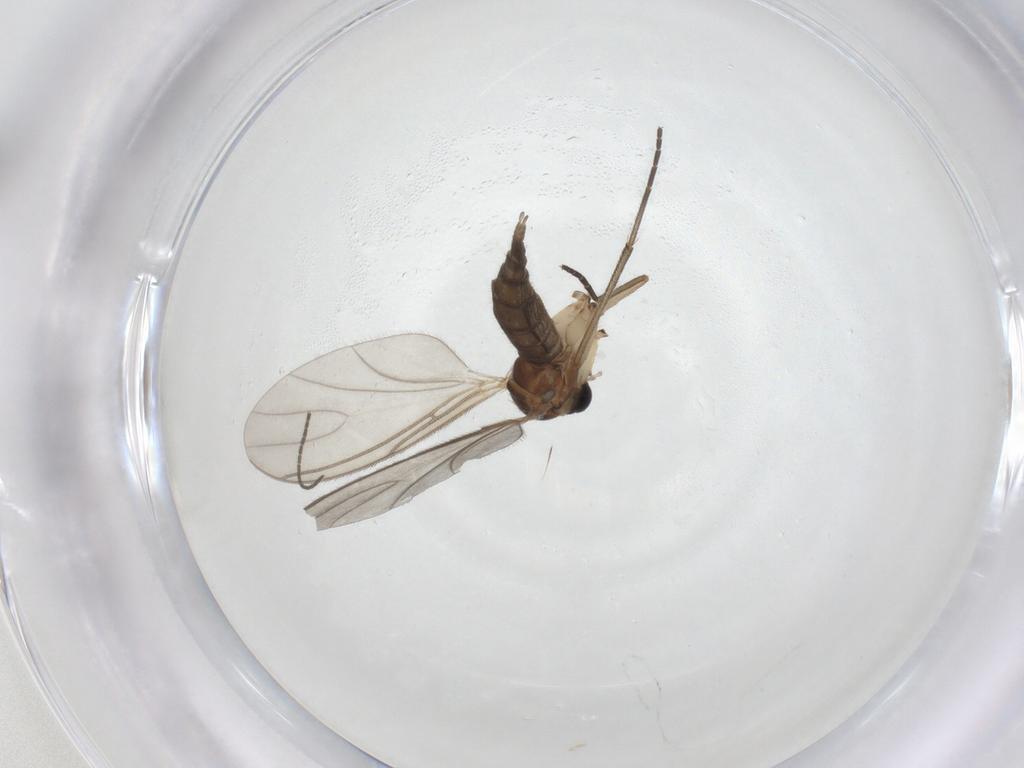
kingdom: Animalia
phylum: Arthropoda
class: Insecta
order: Diptera
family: Sciaridae
